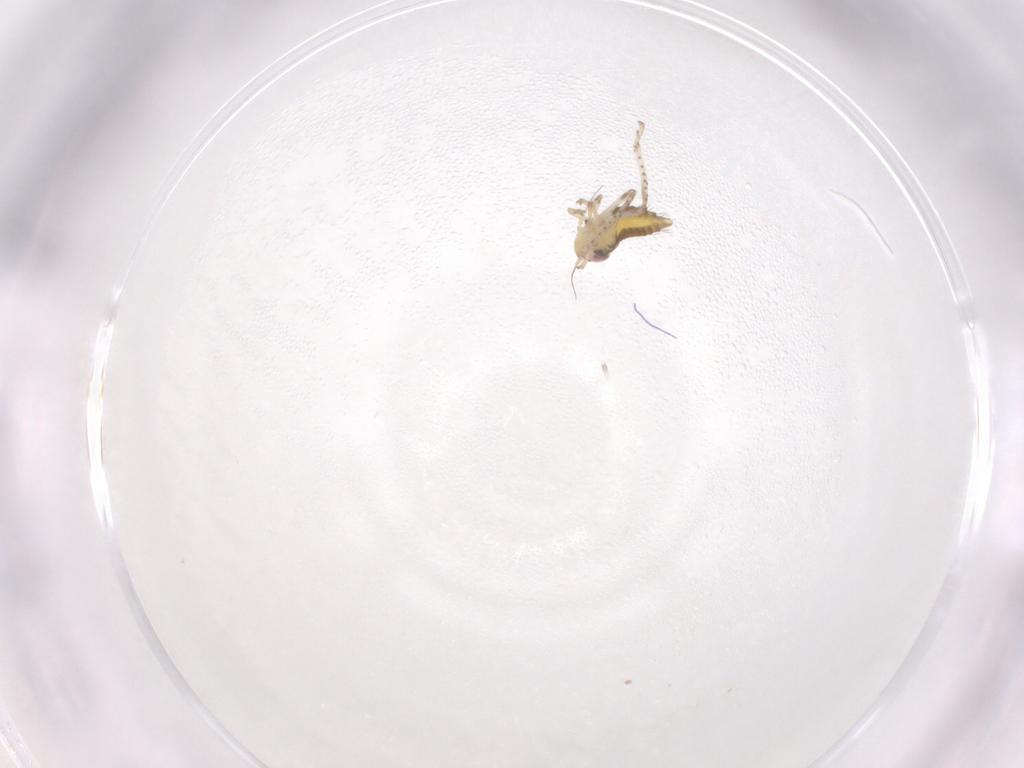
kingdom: Animalia
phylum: Arthropoda
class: Insecta
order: Hemiptera
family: Cicadellidae
